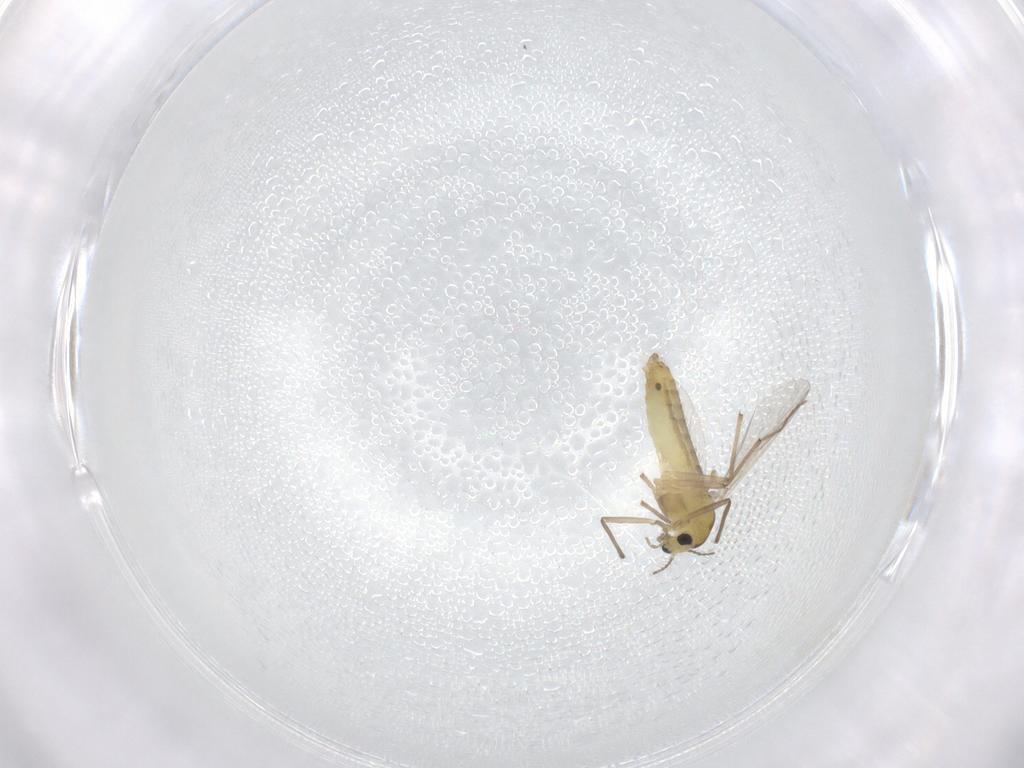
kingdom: Animalia
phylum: Arthropoda
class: Insecta
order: Diptera
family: Chironomidae
